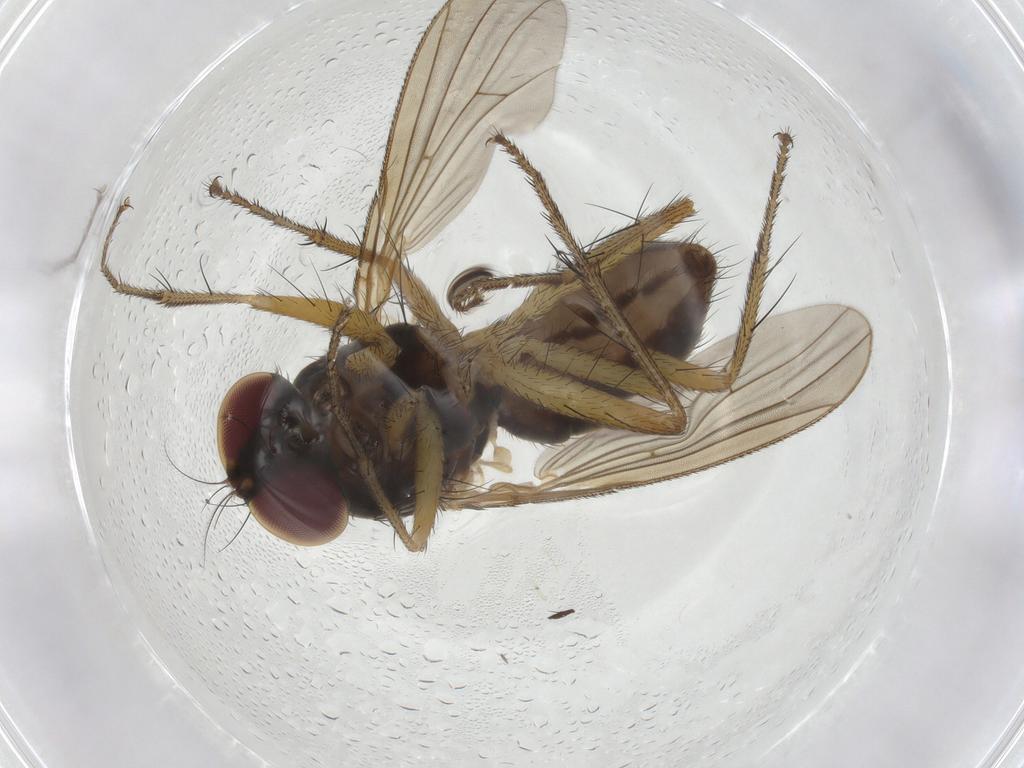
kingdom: Animalia
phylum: Arthropoda
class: Insecta
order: Diptera
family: Anthomyiidae
